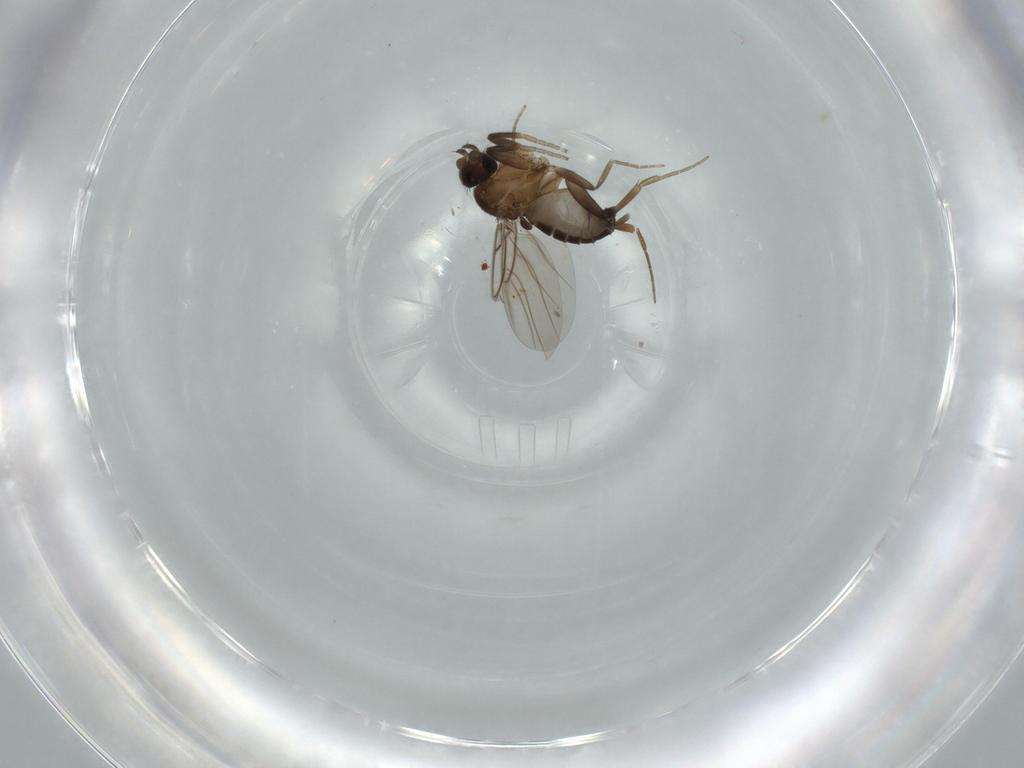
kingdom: Animalia
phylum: Arthropoda
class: Insecta
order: Diptera
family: Phoridae
